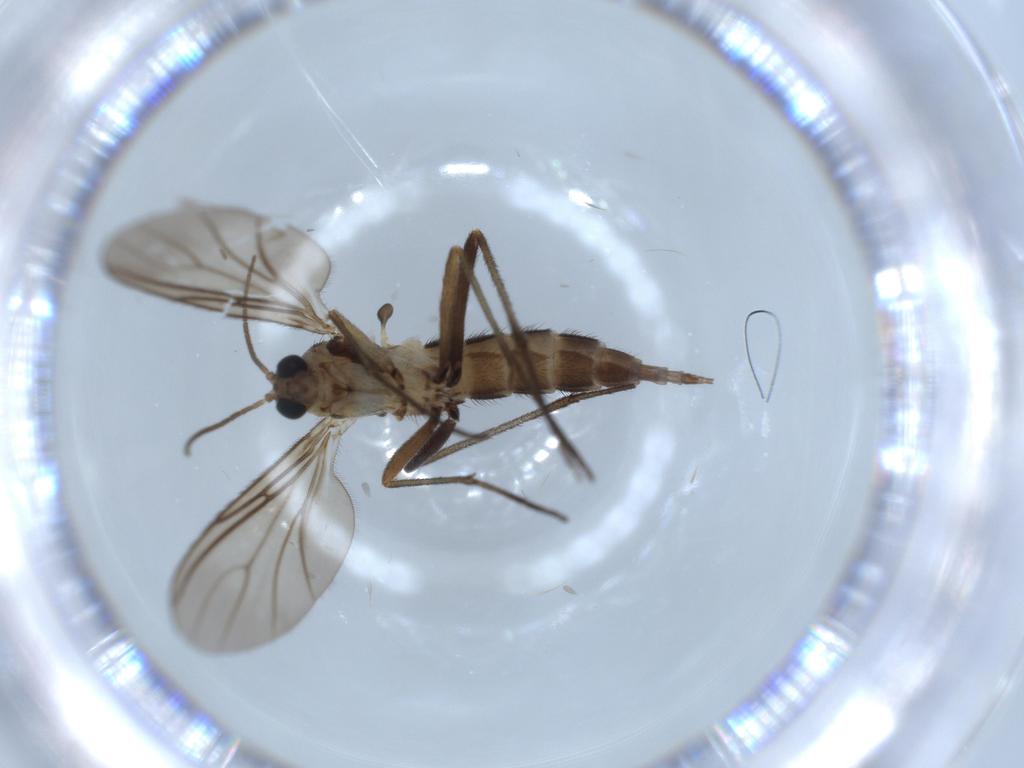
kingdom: Animalia
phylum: Arthropoda
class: Insecta
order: Diptera
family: Sciaridae
